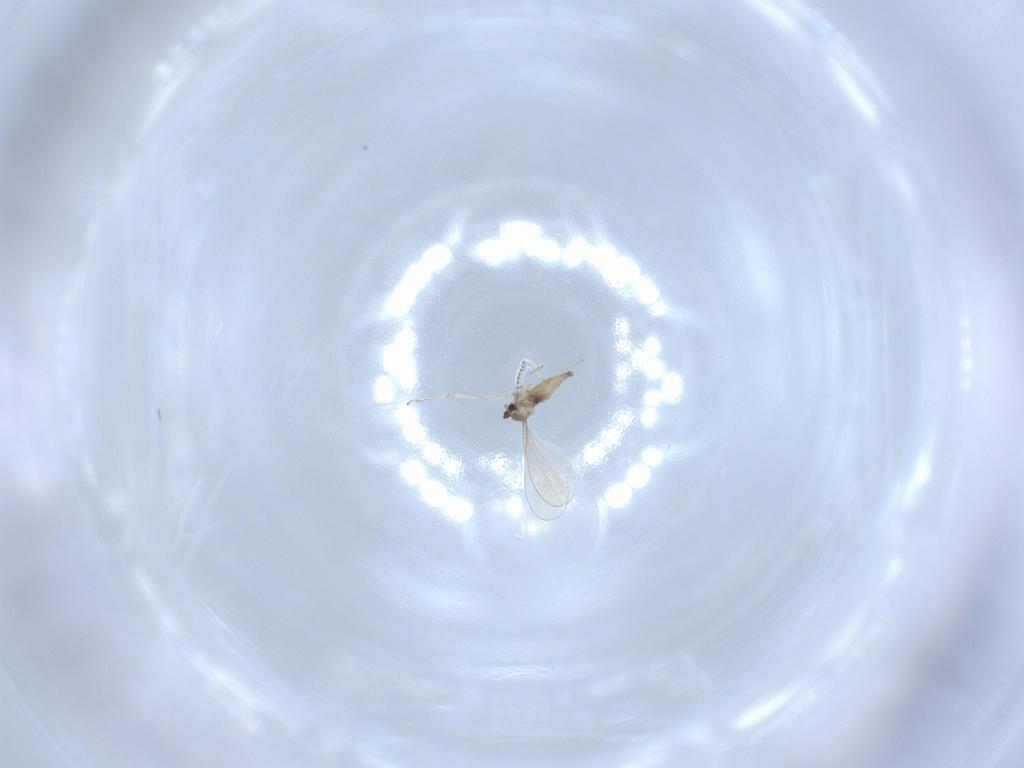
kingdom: Animalia
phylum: Arthropoda
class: Insecta
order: Diptera
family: Cecidomyiidae
